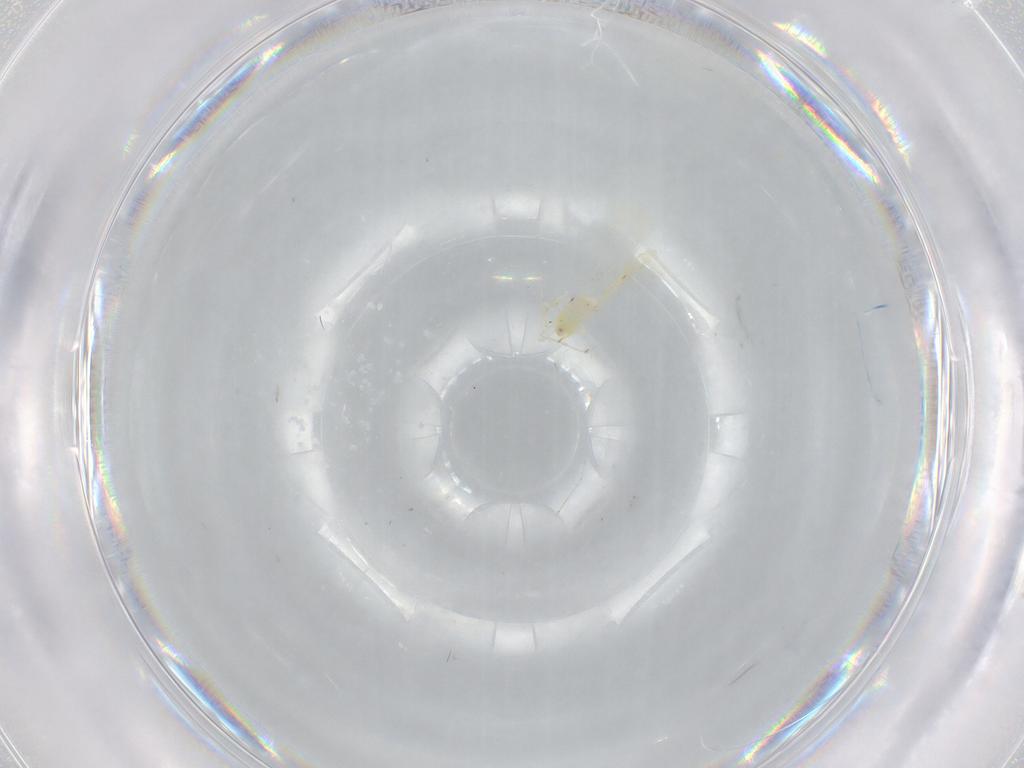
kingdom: Animalia
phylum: Arthropoda
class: Insecta
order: Hemiptera
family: Aleyrodidae
